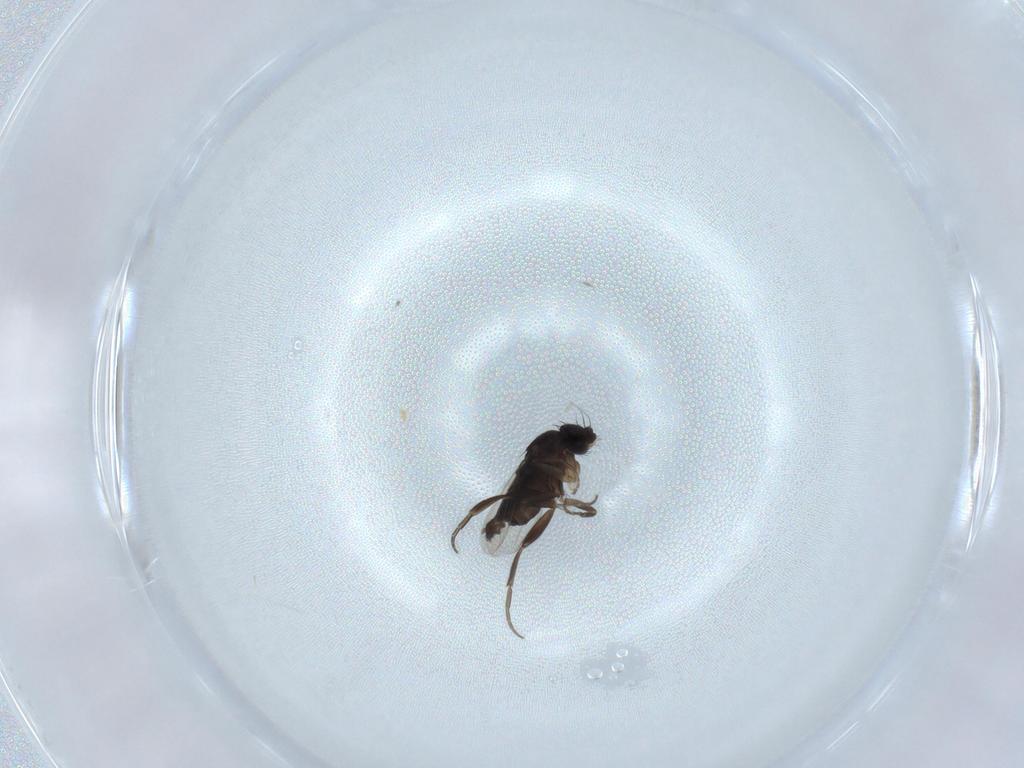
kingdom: Animalia
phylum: Arthropoda
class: Insecta
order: Diptera
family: Phoridae
